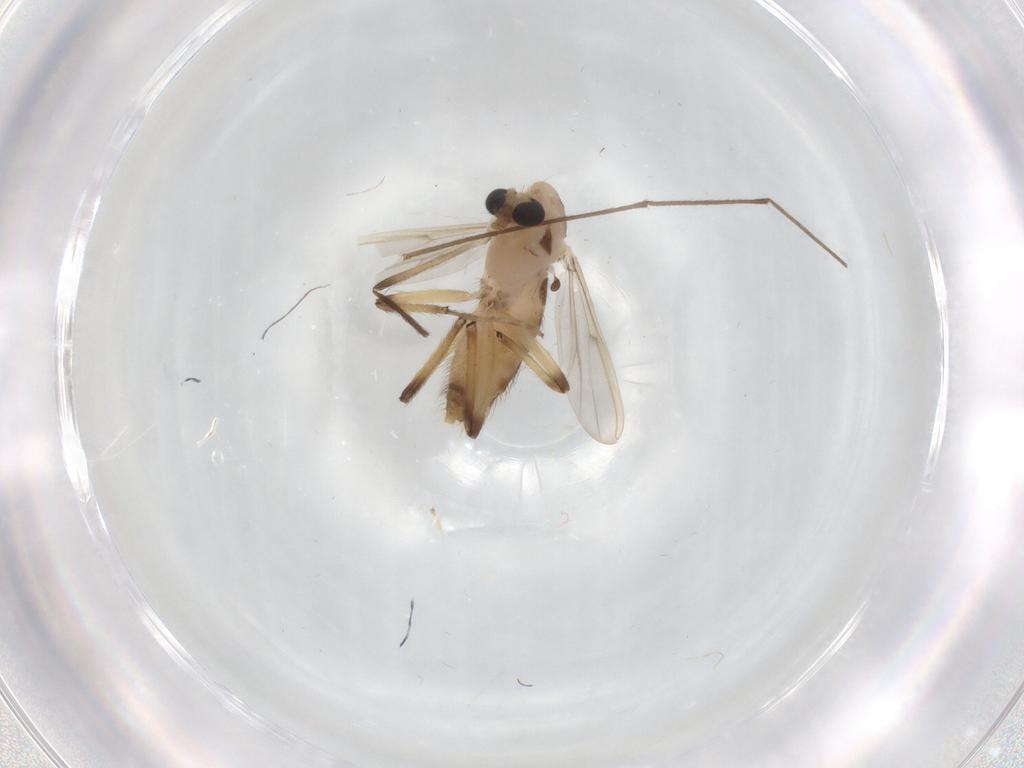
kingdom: Animalia
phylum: Arthropoda
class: Insecta
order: Diptera
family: Chironomidae
